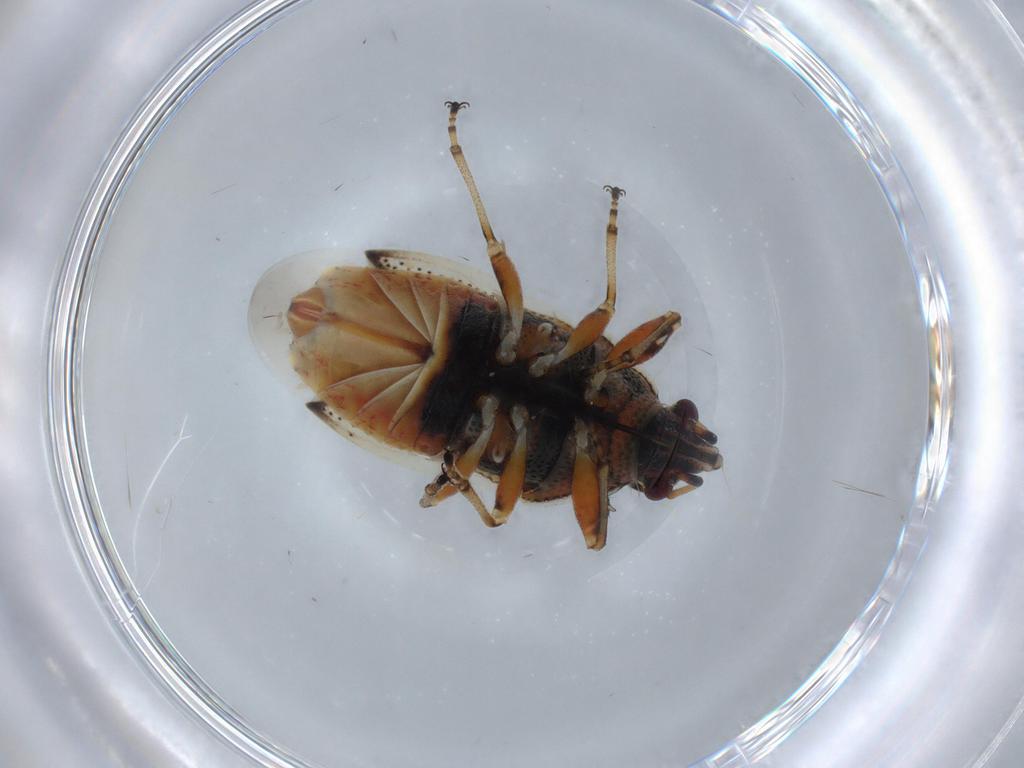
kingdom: Animalia
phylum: Arthropoda
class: Insecta
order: Hemiptera
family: Rhyparochromidae
